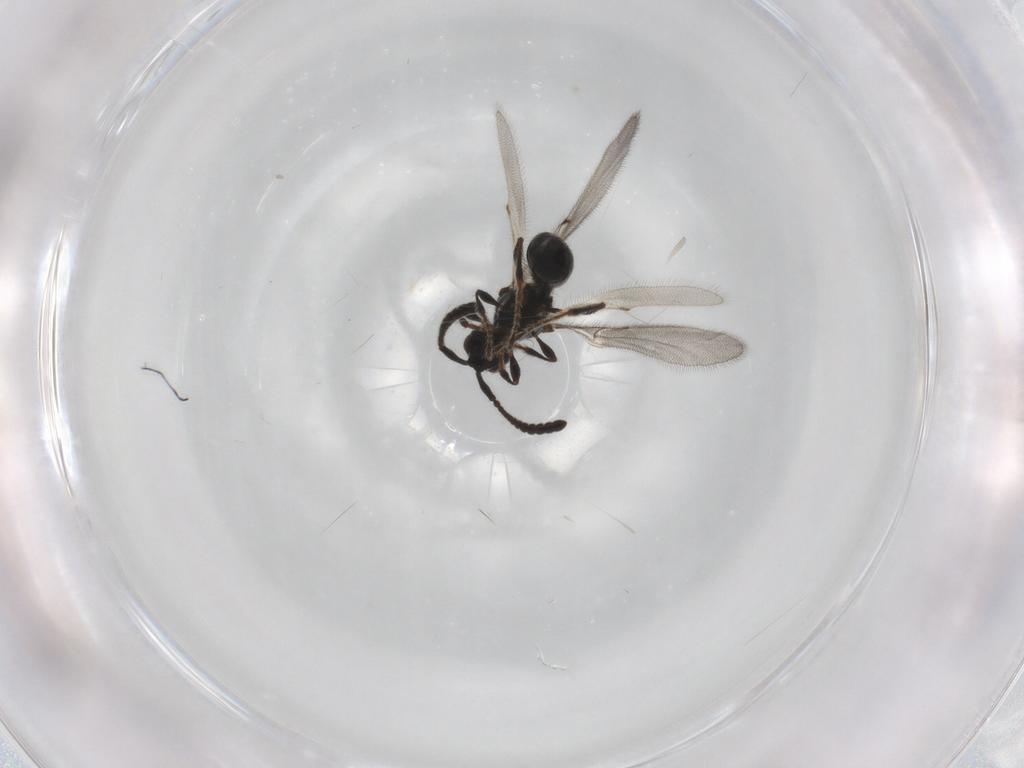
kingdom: Animalia
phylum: Arthropoda
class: Insecta
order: Hymenoptera
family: Diapriidae
